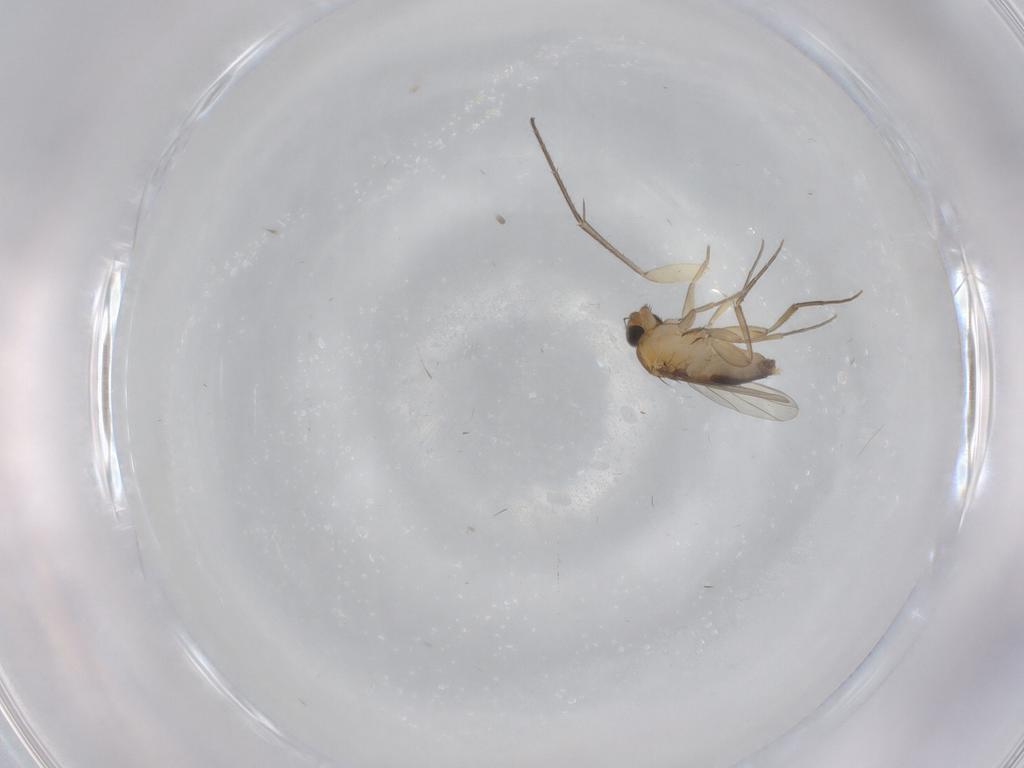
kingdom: Animalia
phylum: Arthropoda
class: Insecta
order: Diptera
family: Phoridae
